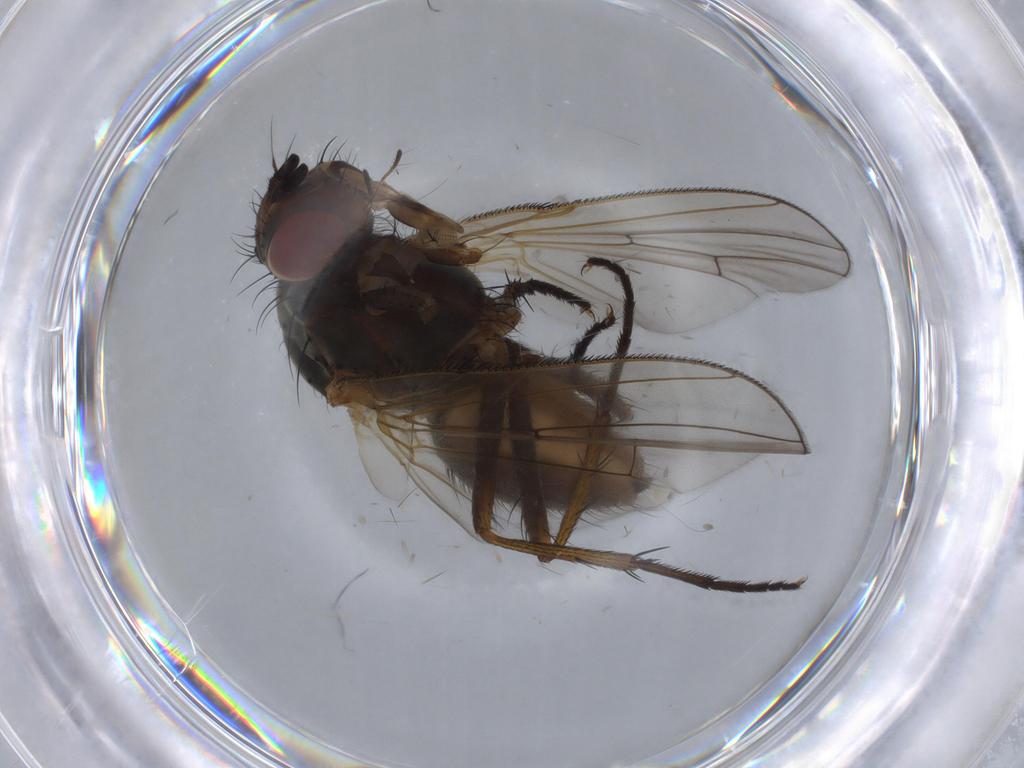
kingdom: Animalia
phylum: Arthropoda
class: Insecta
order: Diptera
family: Anthomyiidae
